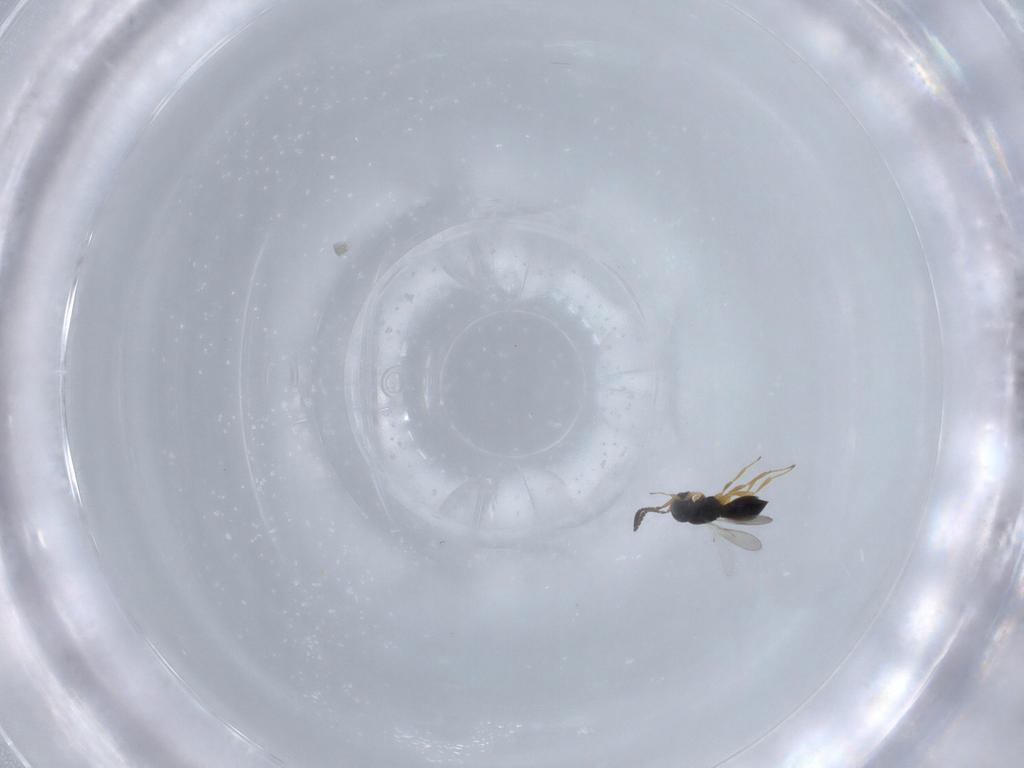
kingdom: Animalia
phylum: Arthropoda
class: Insecta
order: Hymenoptera
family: Scelionidae
